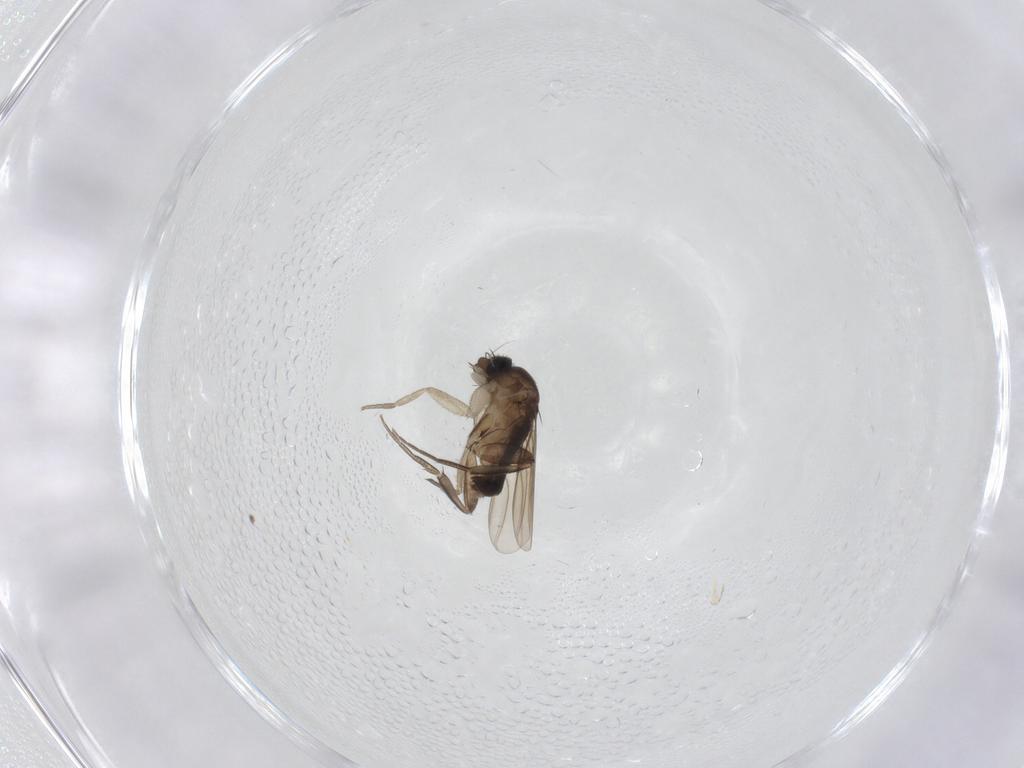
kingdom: Animalia
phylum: Arthropoda
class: Insecta
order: Diptera
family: Phoridae
